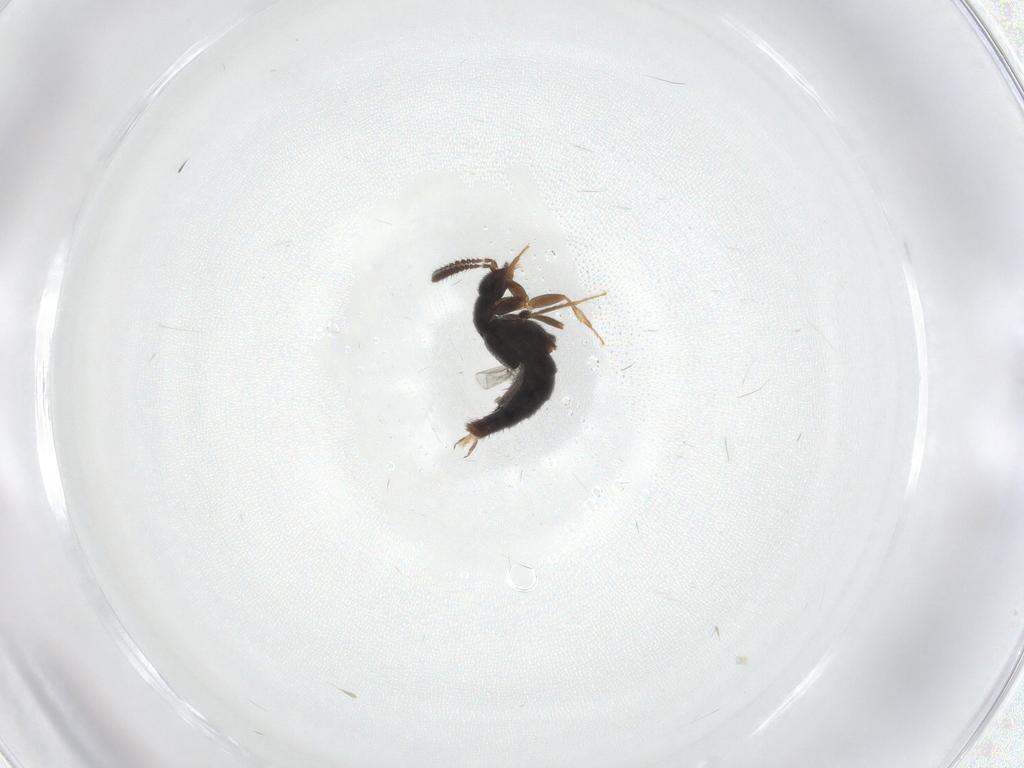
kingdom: Animalia
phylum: Arthropoda
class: Insecta
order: Coleoptera
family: Staphylinidae
